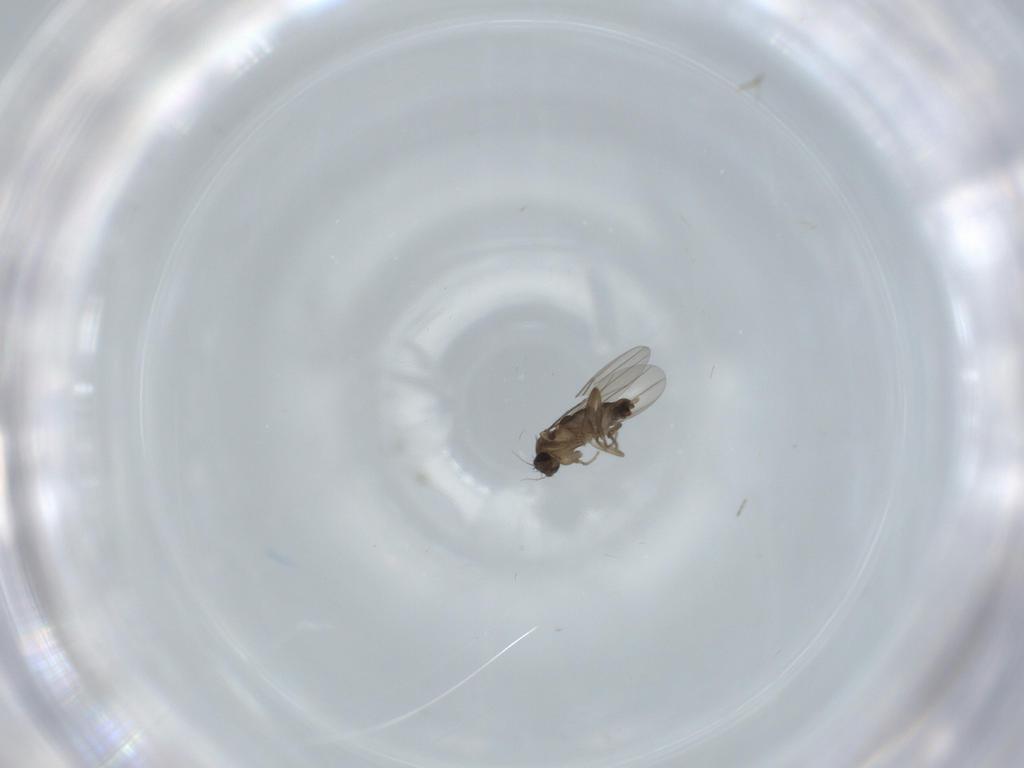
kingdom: Animalia
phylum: Arthropoda
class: Insecta
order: Diptera
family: Phoridae
